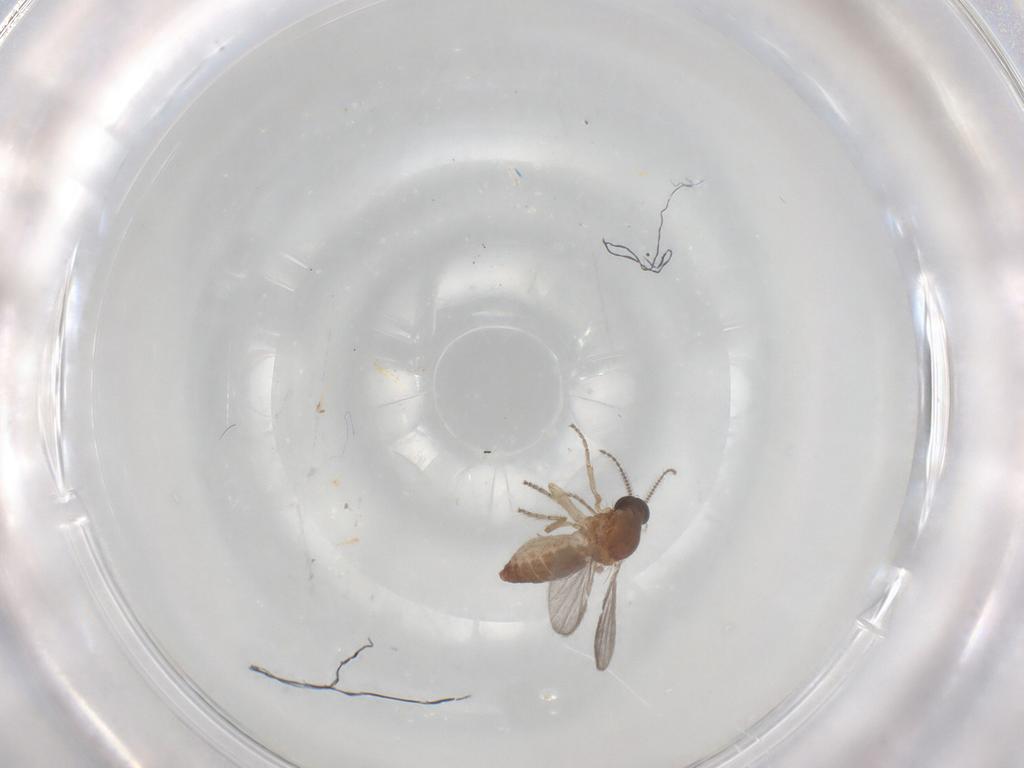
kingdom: Animalia
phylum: Arthropoda
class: Insecta
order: Diptera
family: Ceratopogonidae
